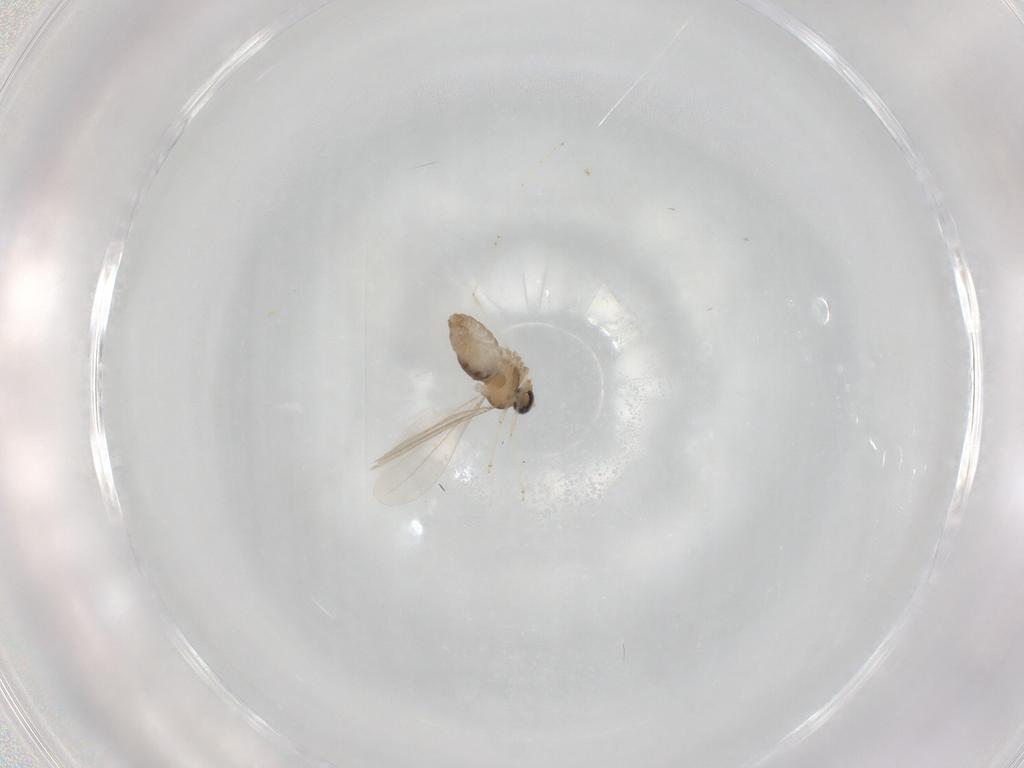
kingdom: Animalia
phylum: Arthropoda
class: Insecta
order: Diptera
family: Cecidomyiidae
